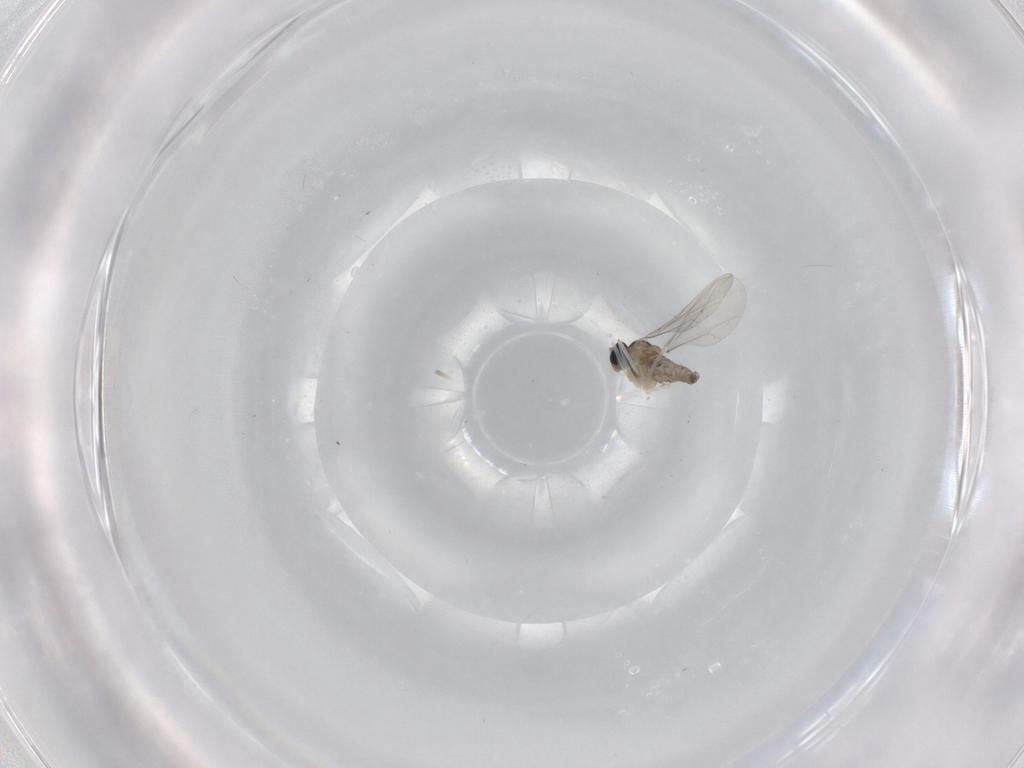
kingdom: Animalia
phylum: Arthropoda
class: Insecta
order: Diptera
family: Cecidomyiidae
